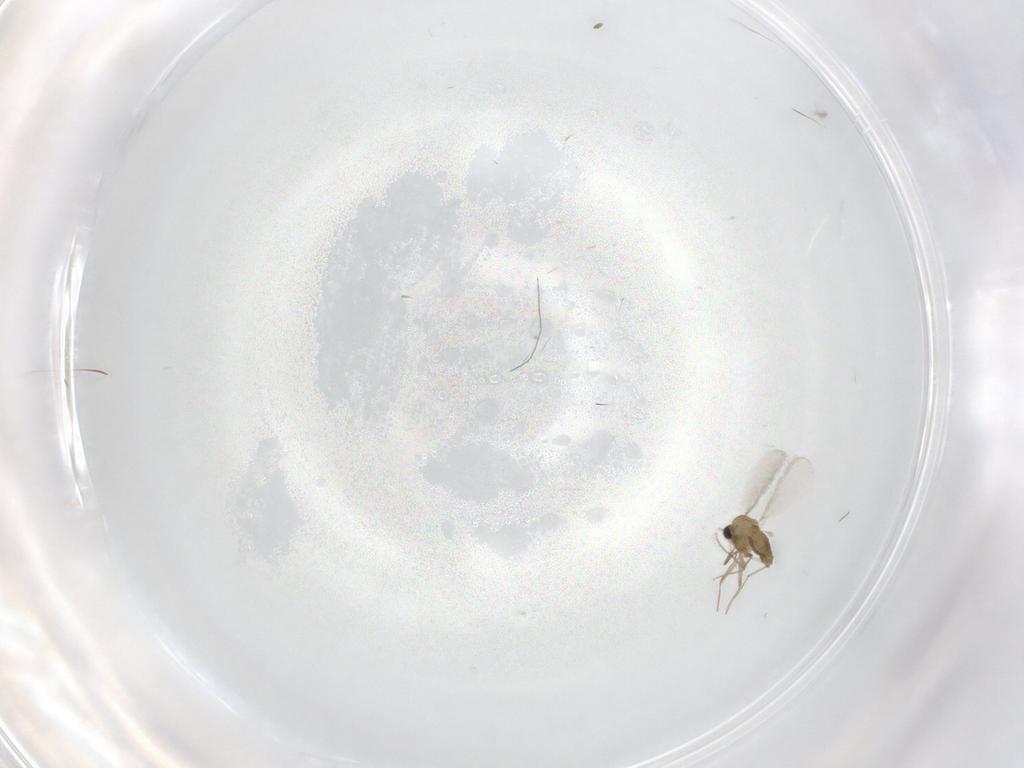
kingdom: Animalia
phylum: Arthropoda
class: Insecta
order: Diptera
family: Chironomidae
